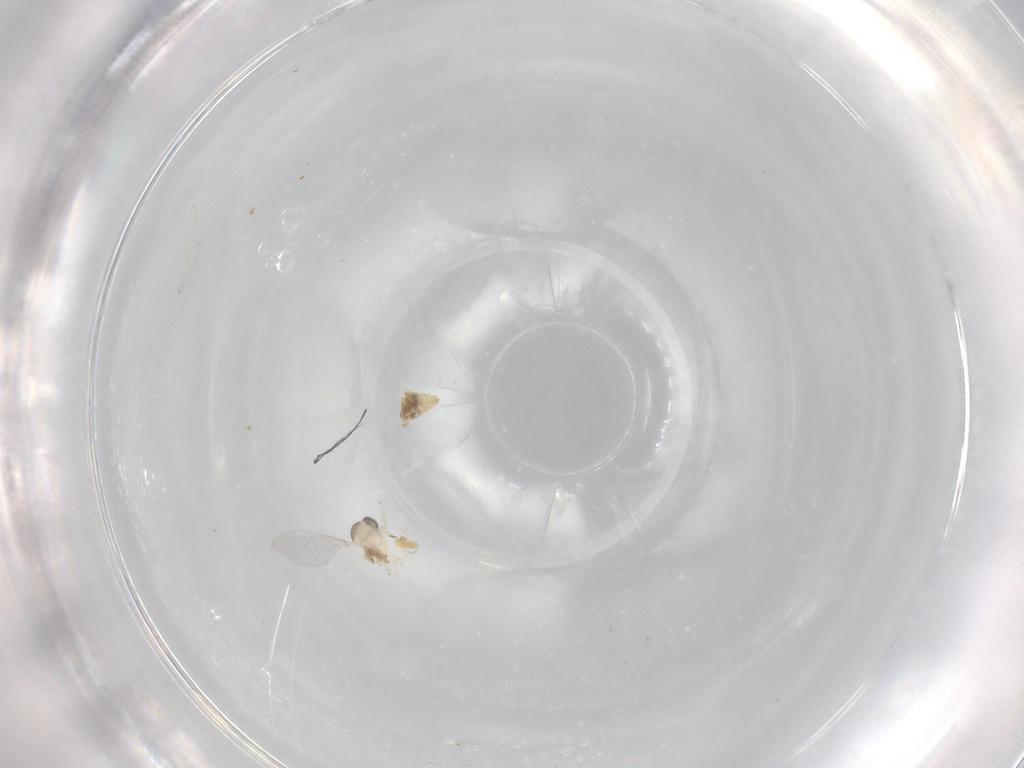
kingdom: Animalia
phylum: Arthropoda
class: Insecta
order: Diptera
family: Cecidomyiidae
